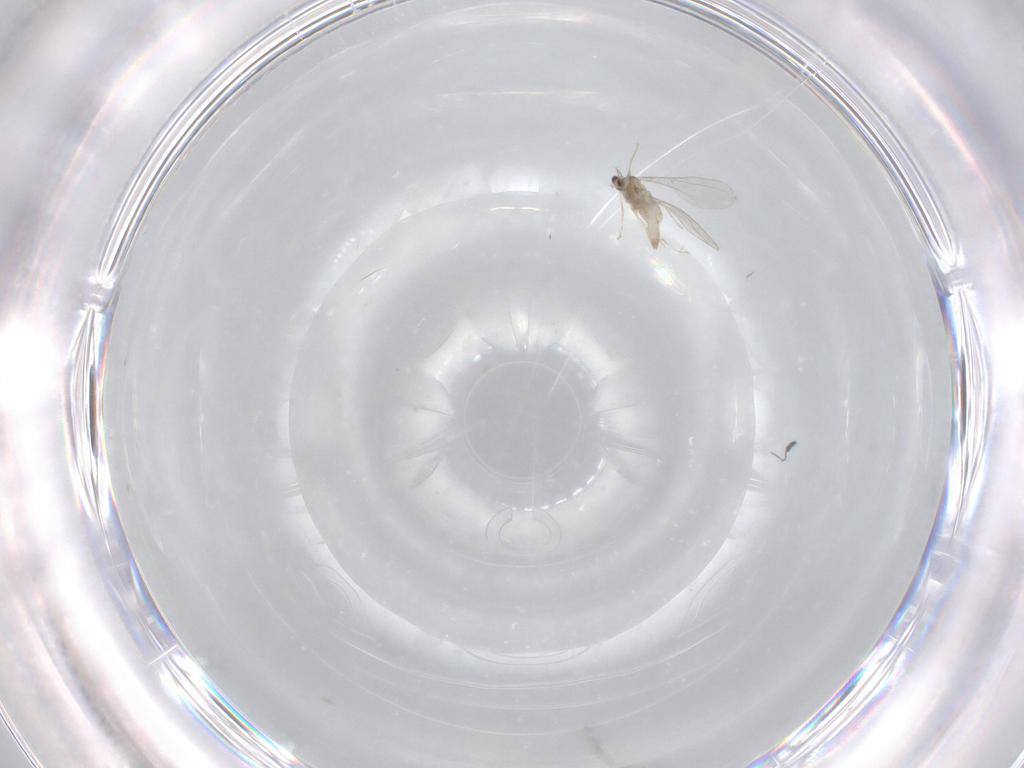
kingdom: Animalia
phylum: Arthropoda
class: Insecta
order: Diptera
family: Cecidomyiidae
